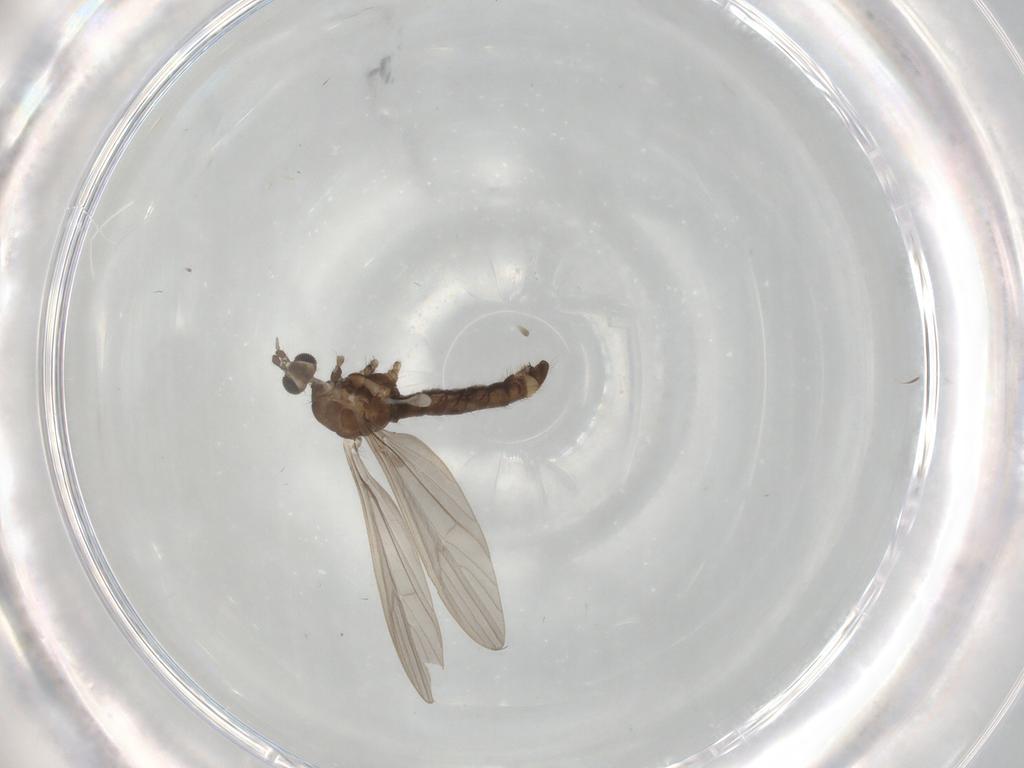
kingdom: Animalia
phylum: Arthropoda
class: Insecta
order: Diptera
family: Limoniidae
